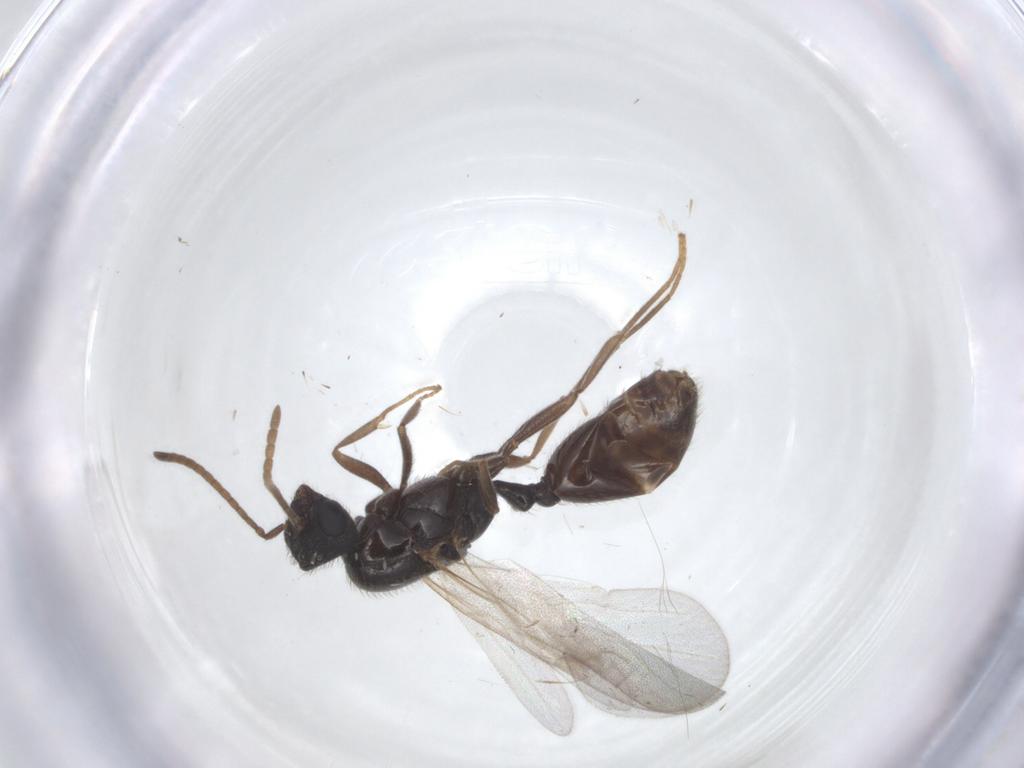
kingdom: Animalia
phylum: Arthropoda
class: Insecta
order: Hymenoptera
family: Formicidae
